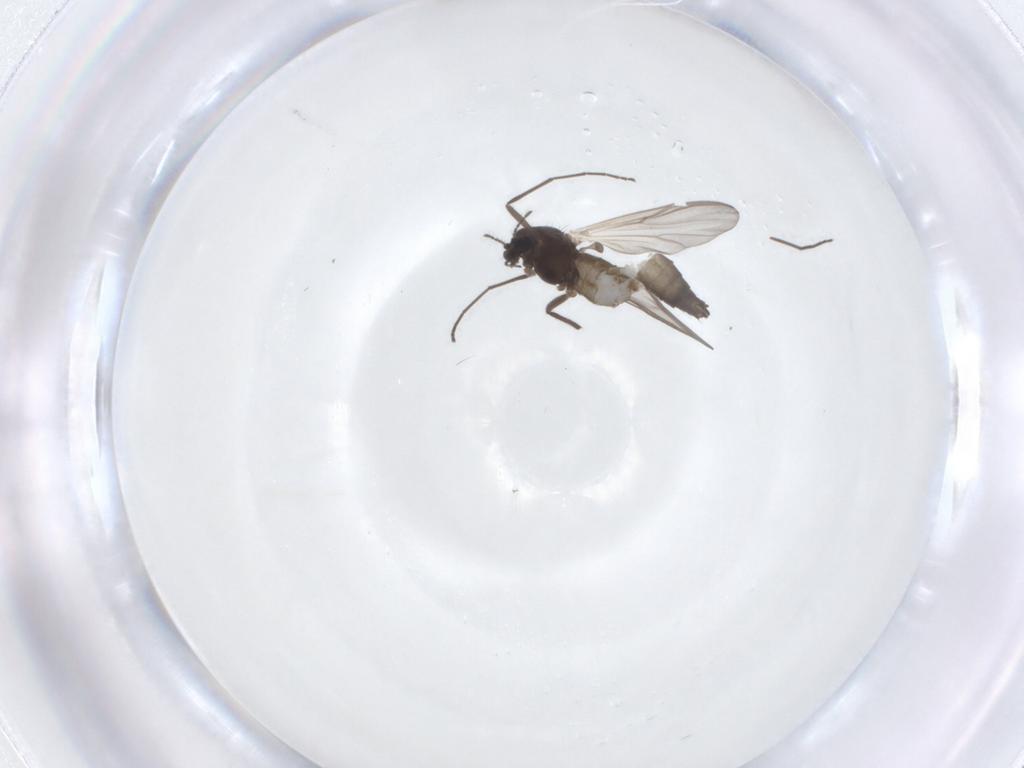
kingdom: Animalia
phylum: Arthropoda
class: Insecta
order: Diptera
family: Chironomidae
